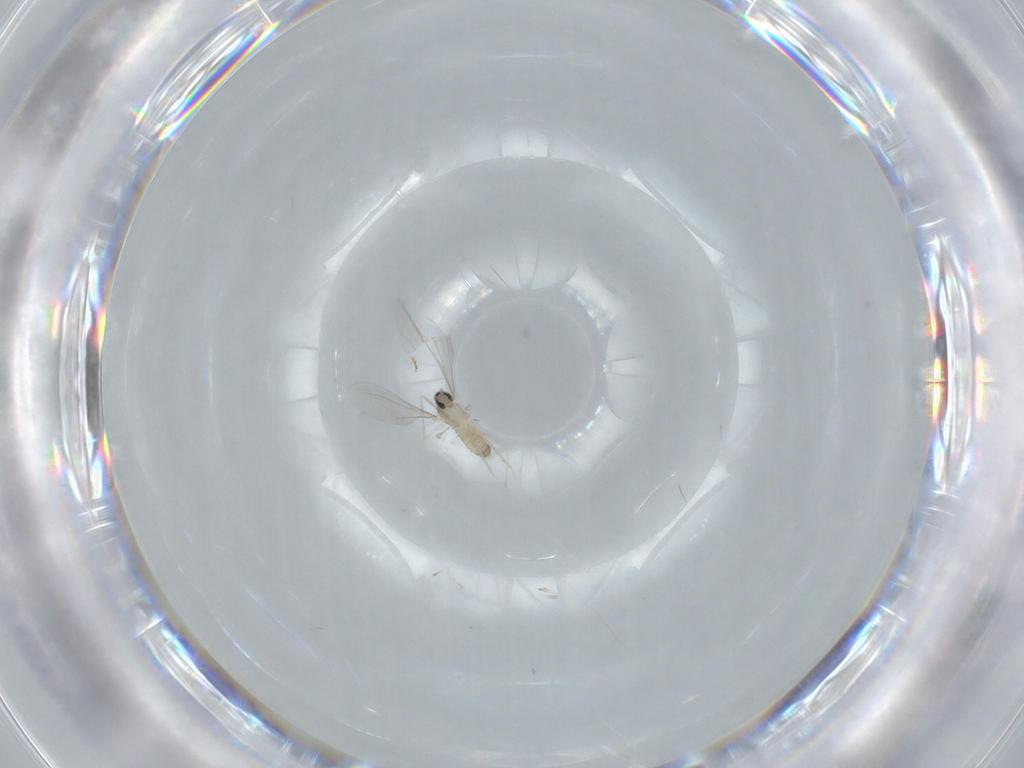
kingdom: Animalia
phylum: Arthropoda
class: Insecta
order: Diptera
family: Cecidomyiidae
